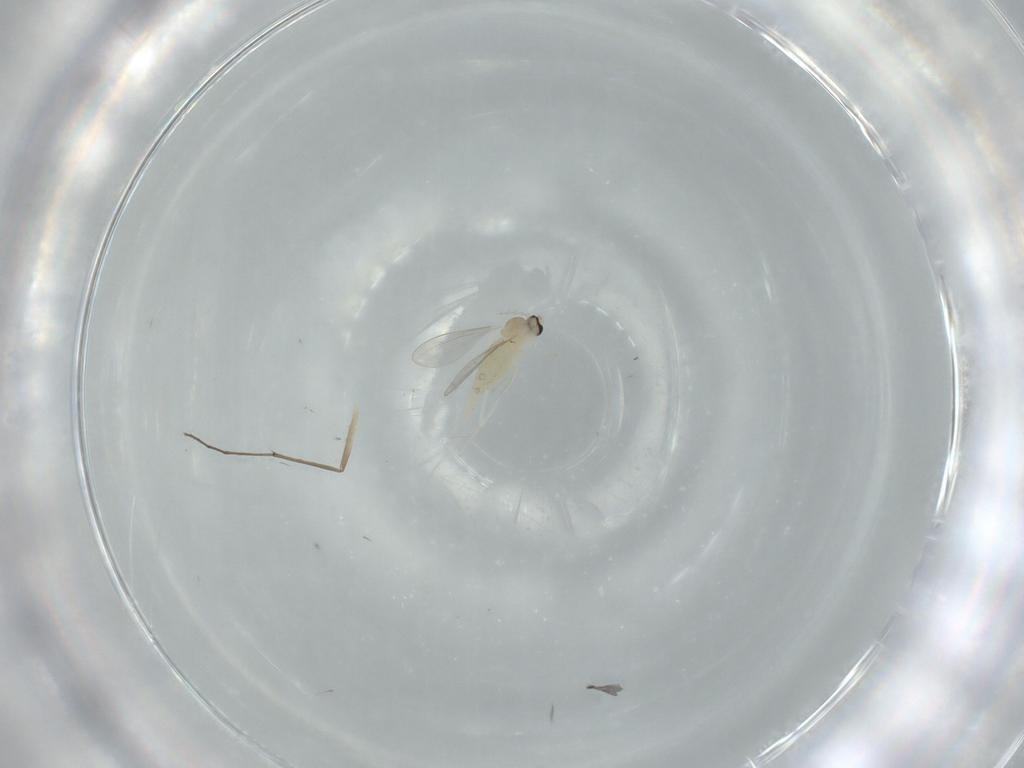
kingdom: Animalia
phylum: Arthropoda
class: Insecta
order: Diptera
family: Cecidomyiidae
